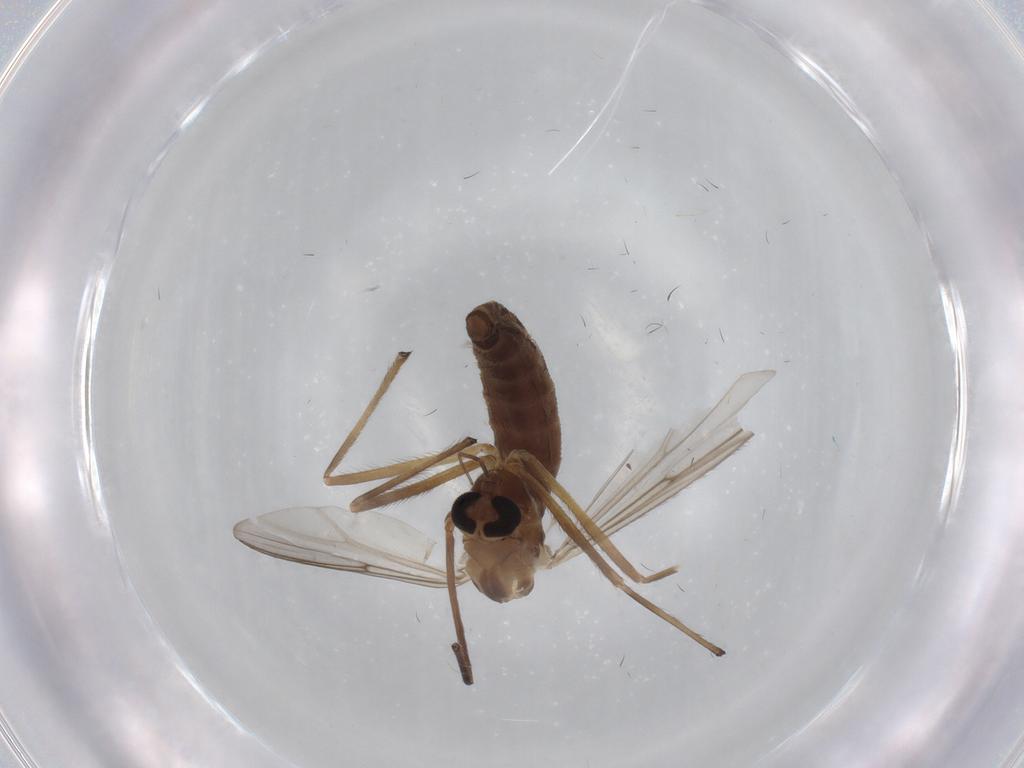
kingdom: Animalia
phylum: Arthropoda
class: Insecta
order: Diptera
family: Chironomidae
